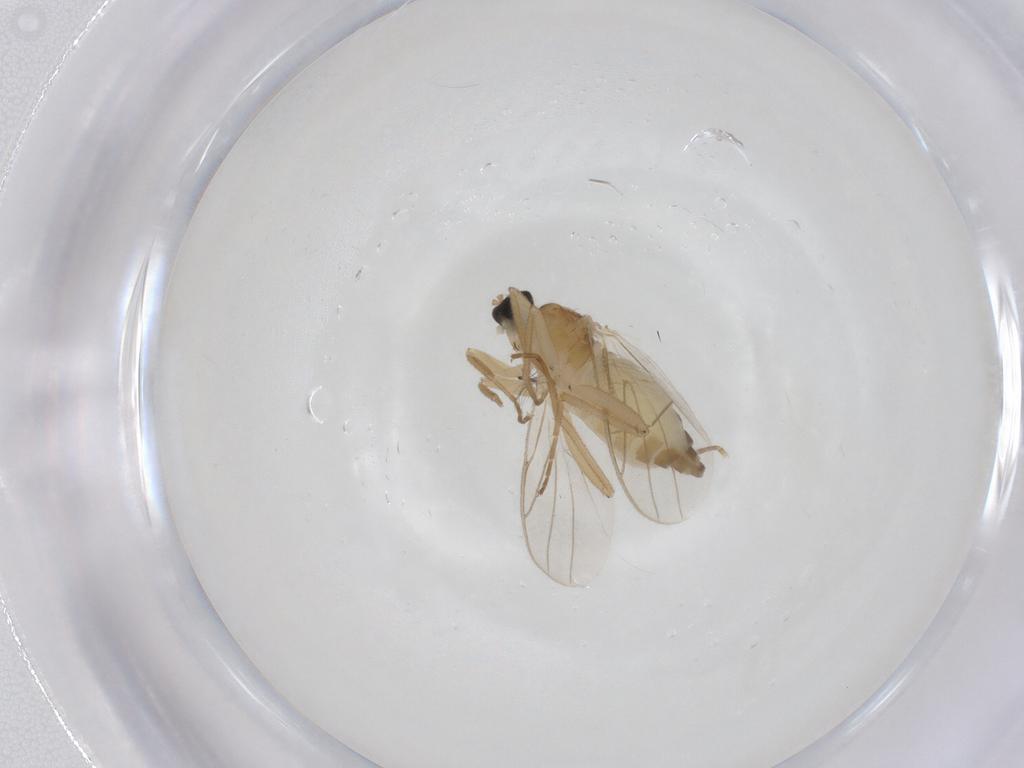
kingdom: Animalia
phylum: Arthropoda
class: Insecta
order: Diptera
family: Hybotidae
